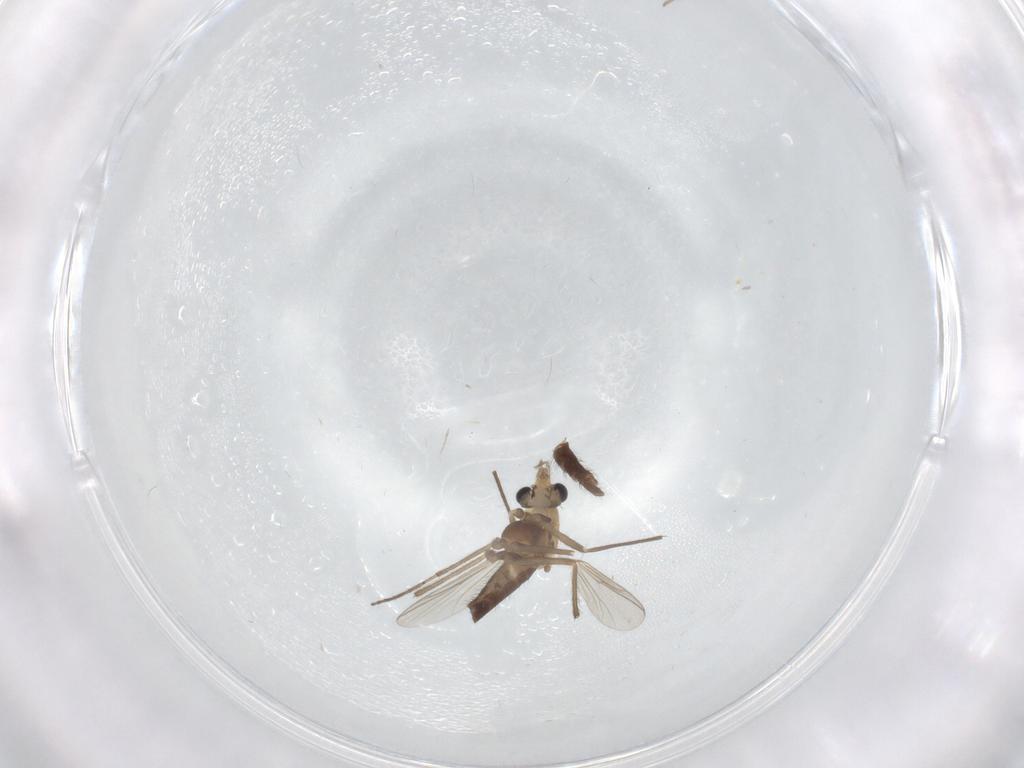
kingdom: Animalia
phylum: Arthropoda
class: Insecta
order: Diptera
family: Chironomidae
